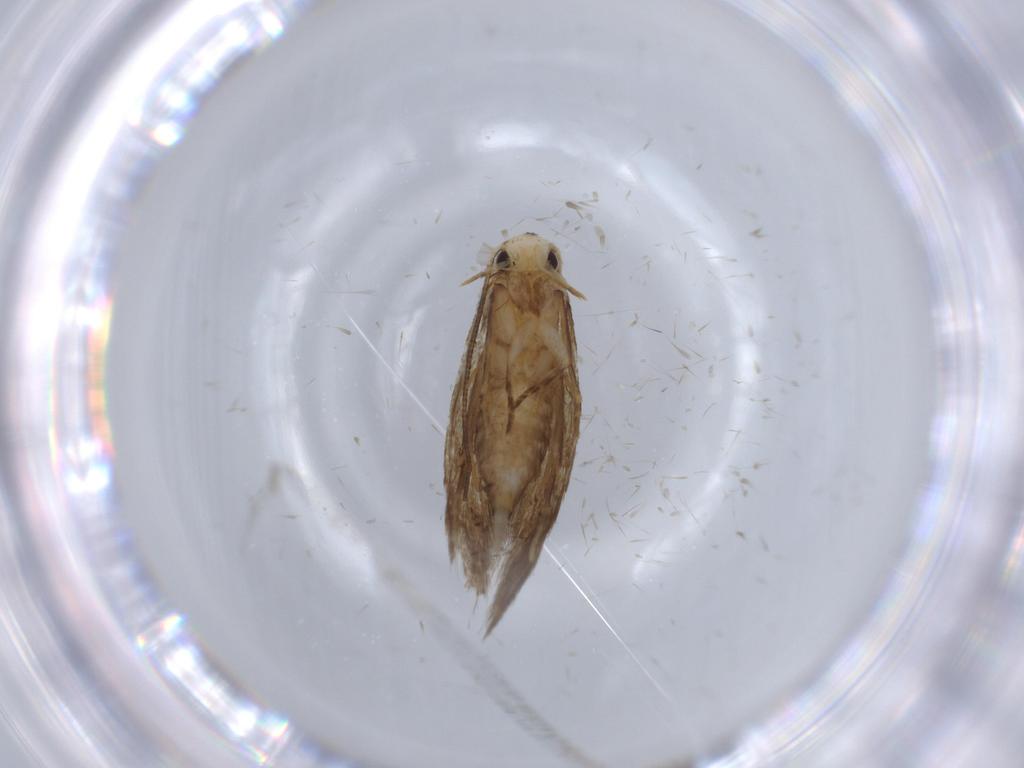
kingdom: Animalia
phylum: Arthropoda
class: Insecta
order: Lepidoptera
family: Tineidae
